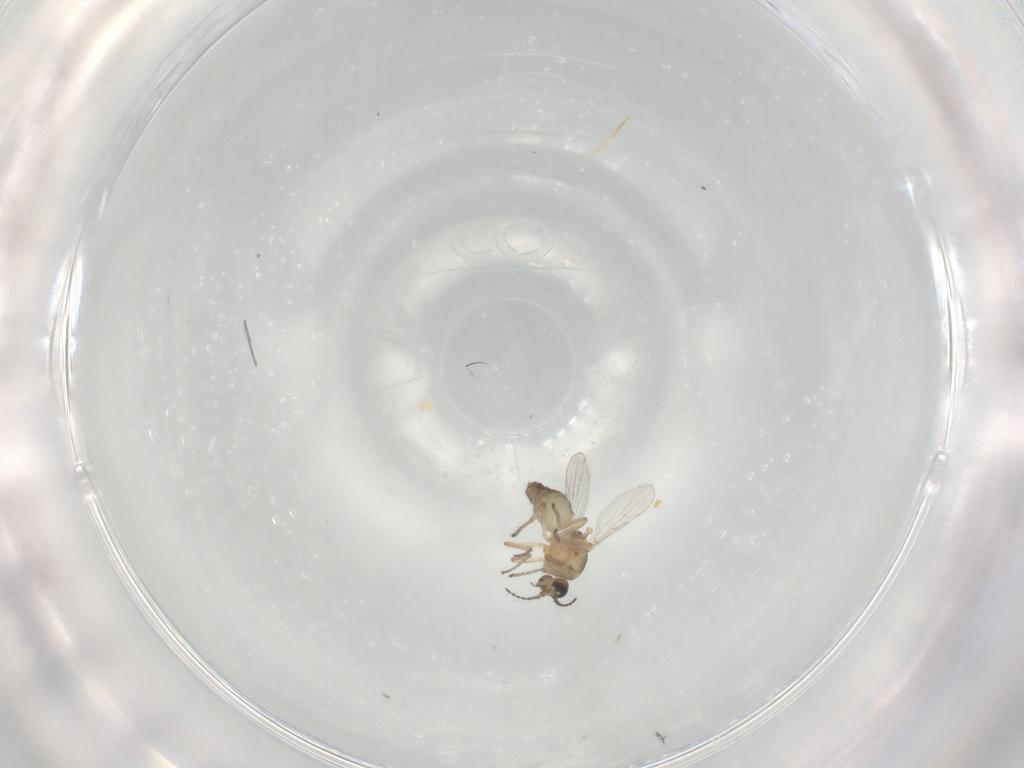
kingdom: Animalia
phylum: Arthropoda
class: Insecta
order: Diptera
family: Ceratopogonidae
